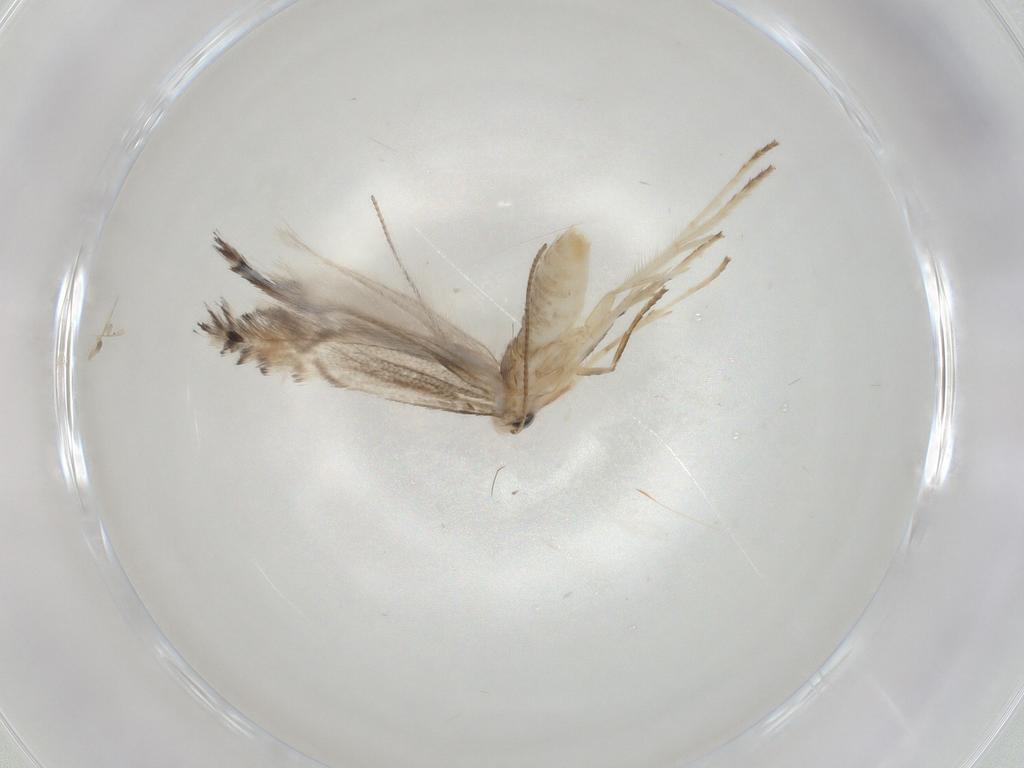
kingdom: Animalia
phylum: Arthropoda
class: Insecta
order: Lepidoptera
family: Gracillariidae
